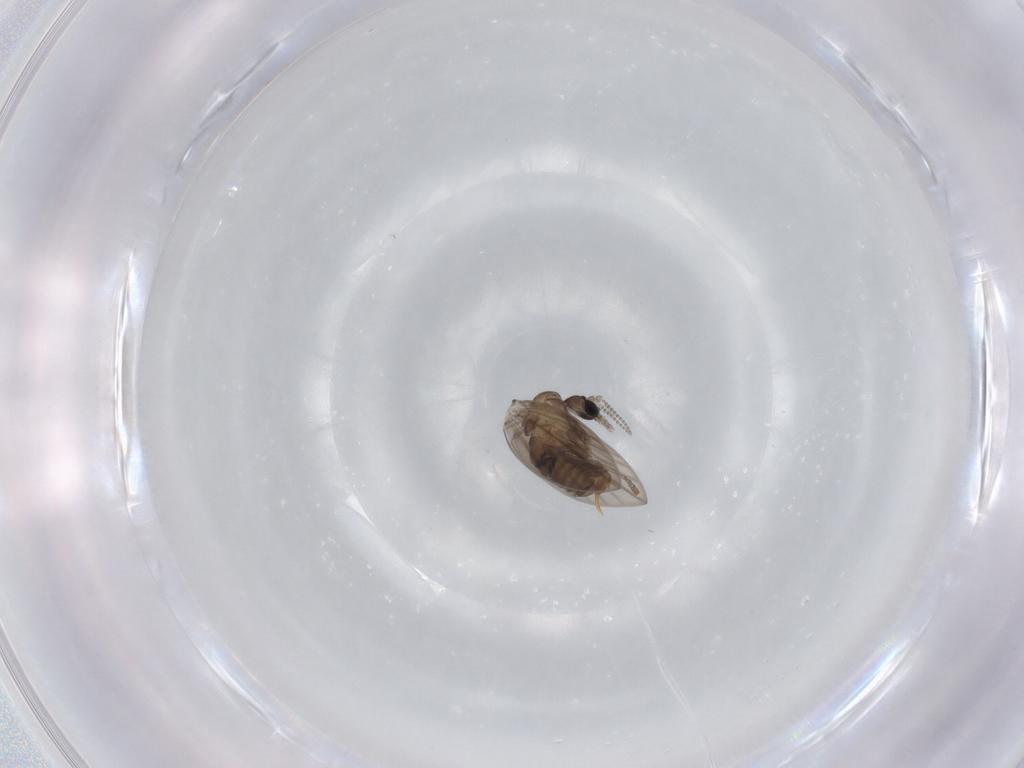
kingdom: Animalia
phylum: Arthropoda
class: Insecta
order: Diptera
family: Psychodidae
